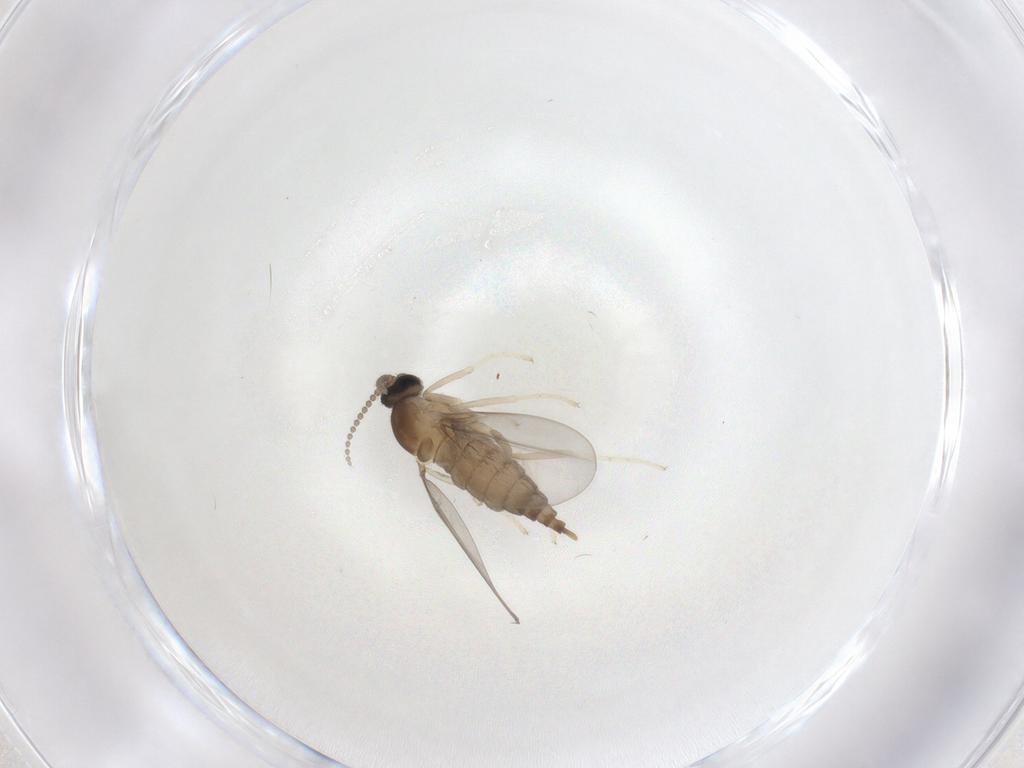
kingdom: Animalia
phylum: Arthropoda
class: Insecta
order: Diptera
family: Cecidomyiidae
